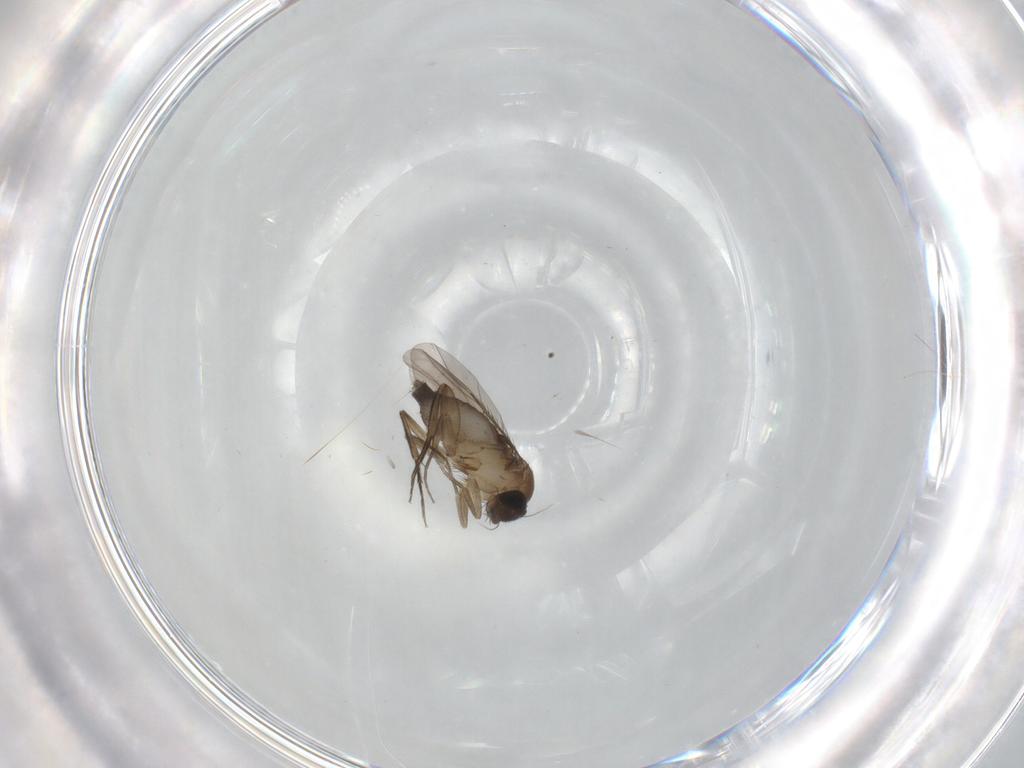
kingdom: Animalia
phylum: Arthropoda
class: Insecta
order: Diptera
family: Phoridae
